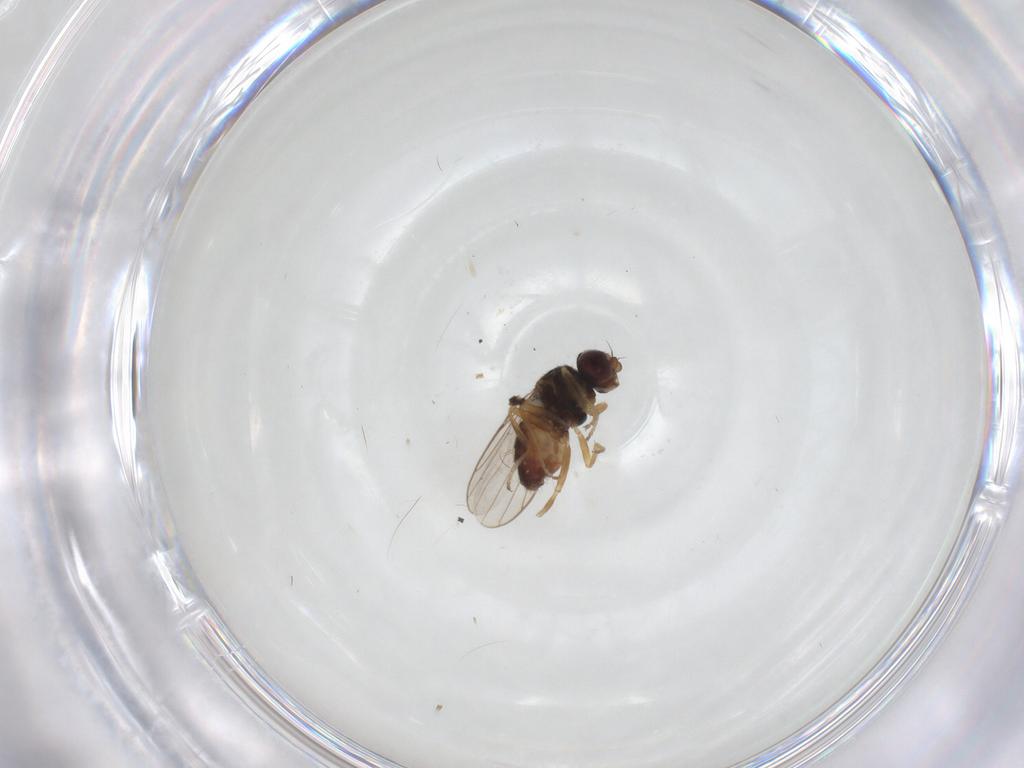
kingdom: Animalia
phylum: Arthropoda
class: Insecta
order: Diptera
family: Chloropidae
